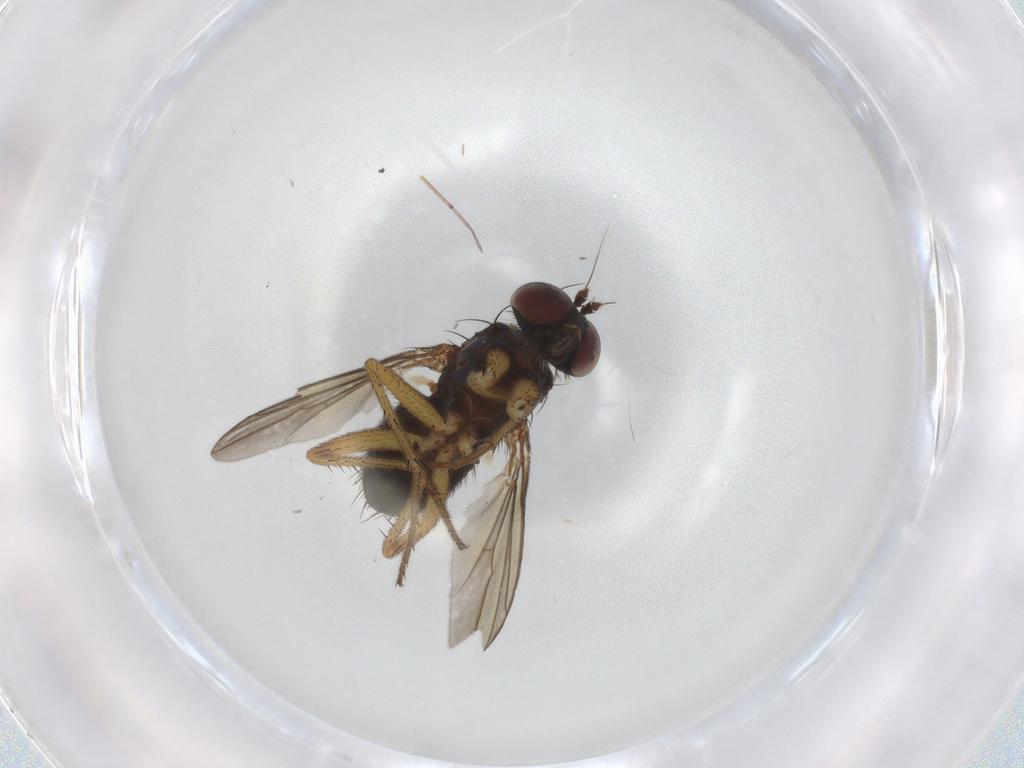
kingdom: Animalia
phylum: Arthropoda
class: Insecta
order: Diptera
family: Dolichopodidae
